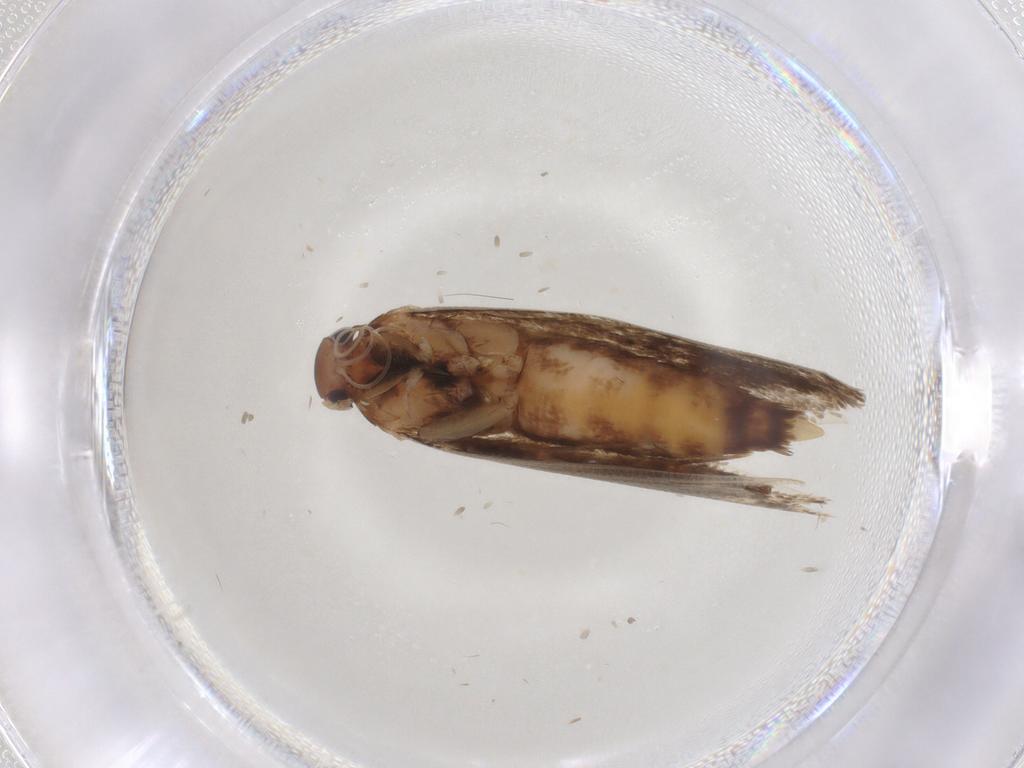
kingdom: Animalia
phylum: Arthropoda
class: Insecta
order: Lepidoptera
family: Cosmopterigidae
